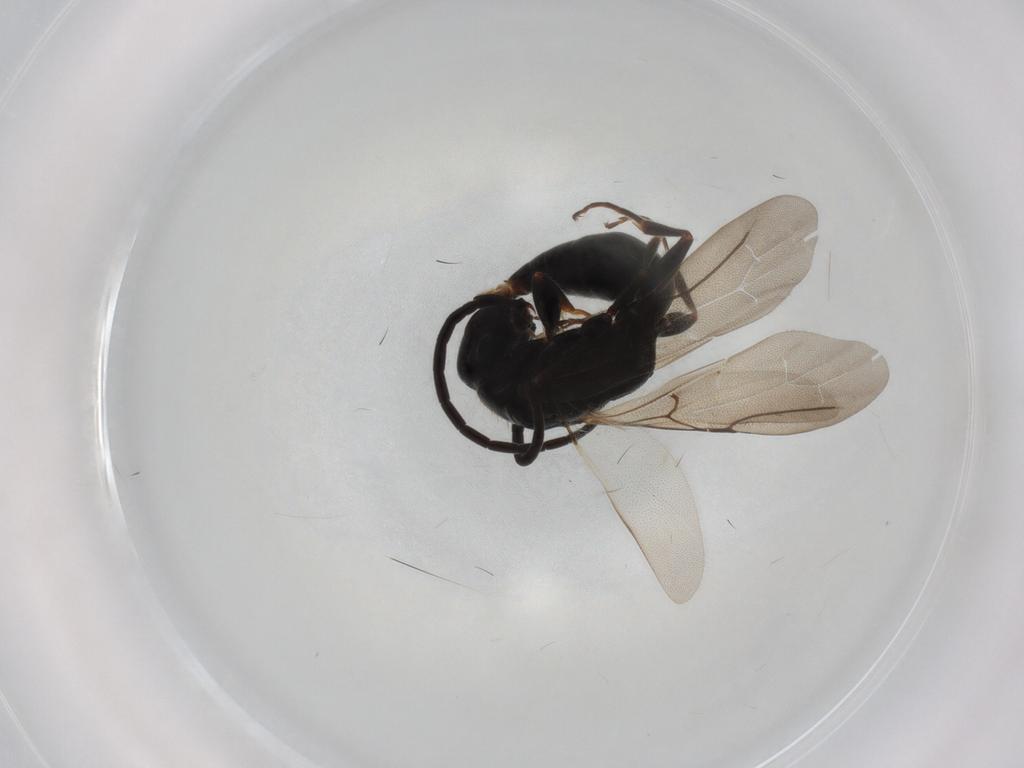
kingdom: Animalia
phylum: Arthropoda
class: Insecta
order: Hymenoptera
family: Bethylidae
